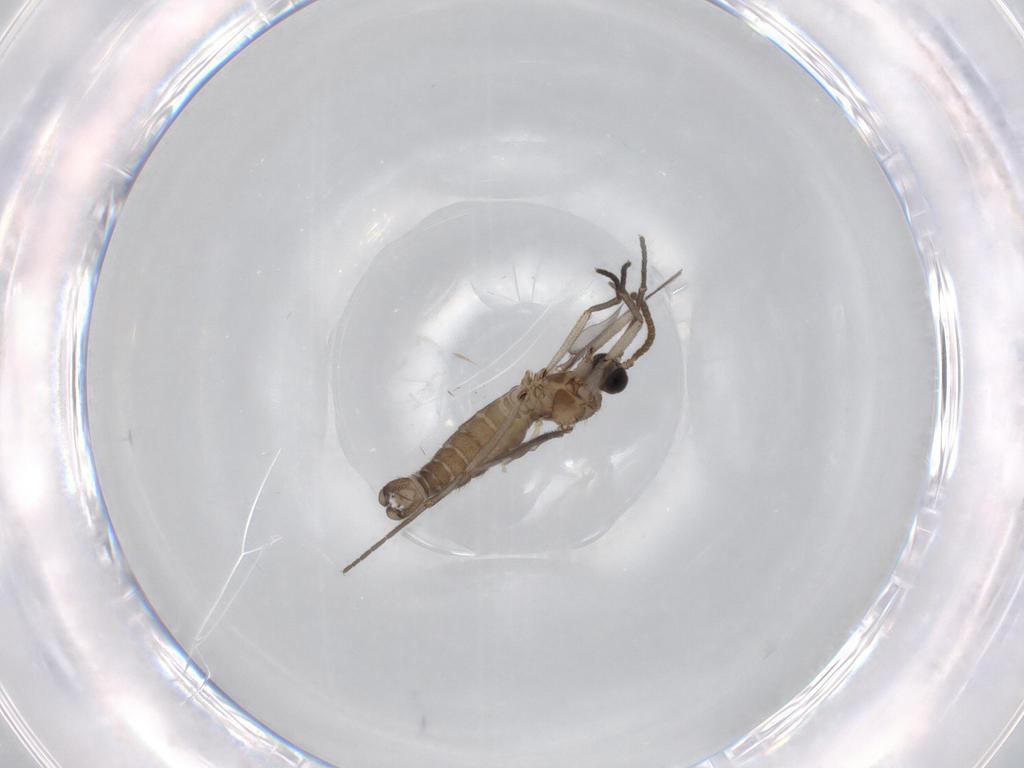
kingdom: Animalia
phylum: Arthropoda
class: Insecta
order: Diptera
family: Cecidomyiidae
